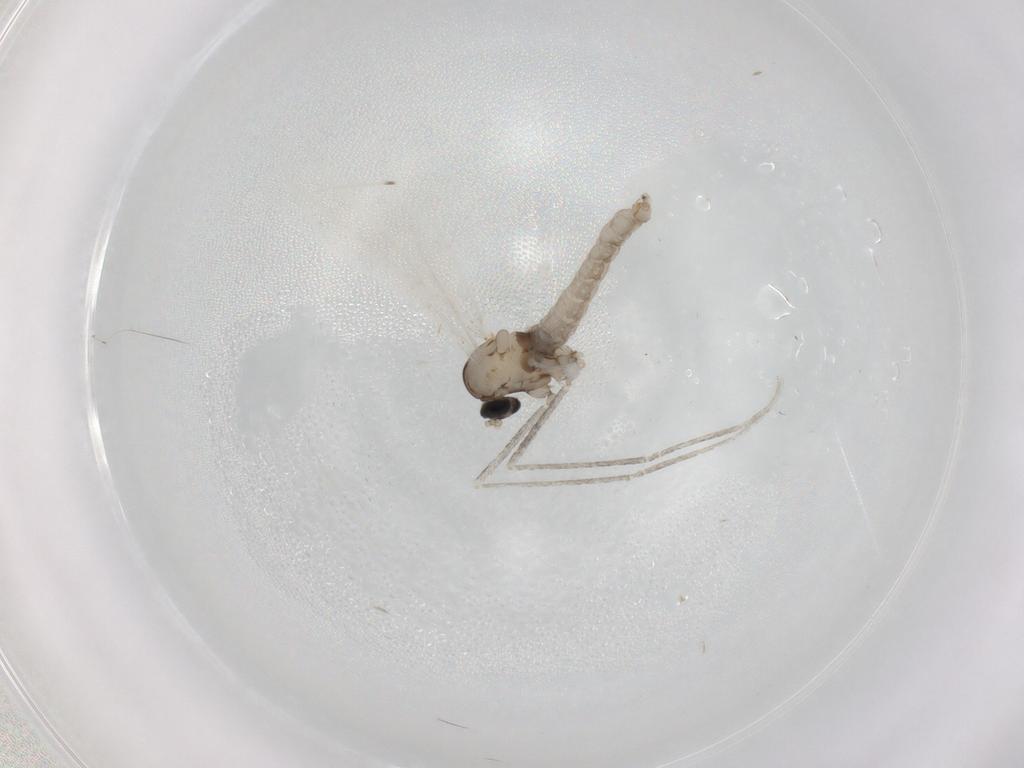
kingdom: Animalia
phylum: Arthropoda
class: Insecta
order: Diptera
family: Cecidomyiidae
